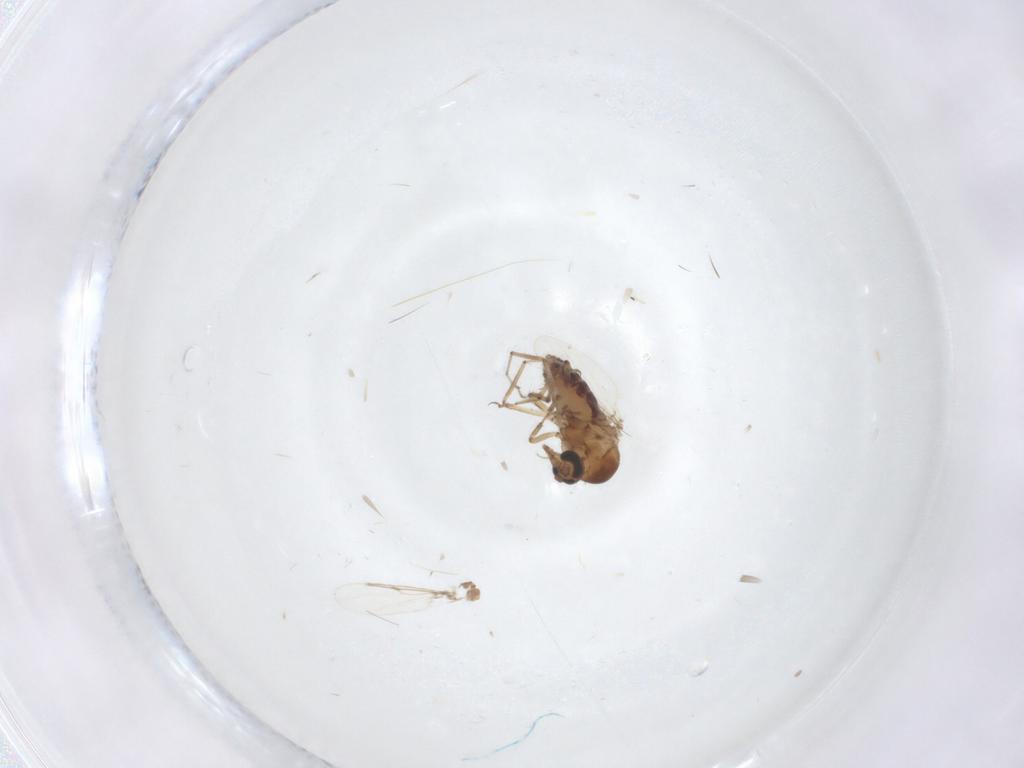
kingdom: Animalia
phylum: Arthropoda
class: Insecta
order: Diptera
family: Ceratopogonidae
